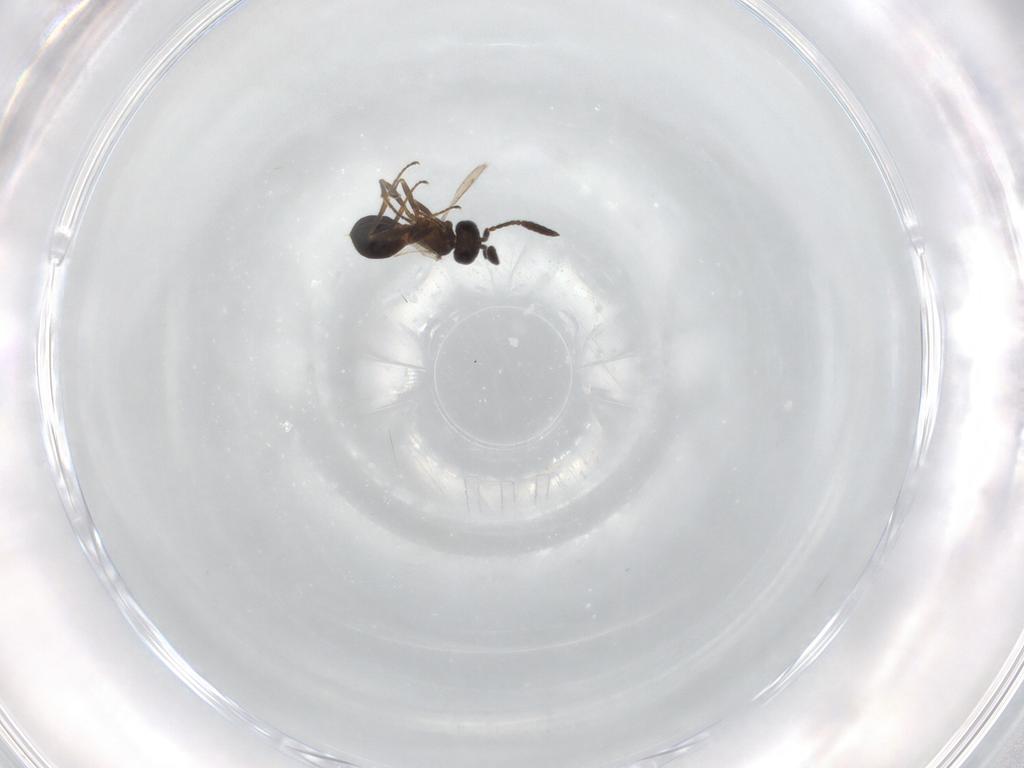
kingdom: Animalia
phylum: Arthropoda
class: Insecta
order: Hymenoptera
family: Scelionidae
